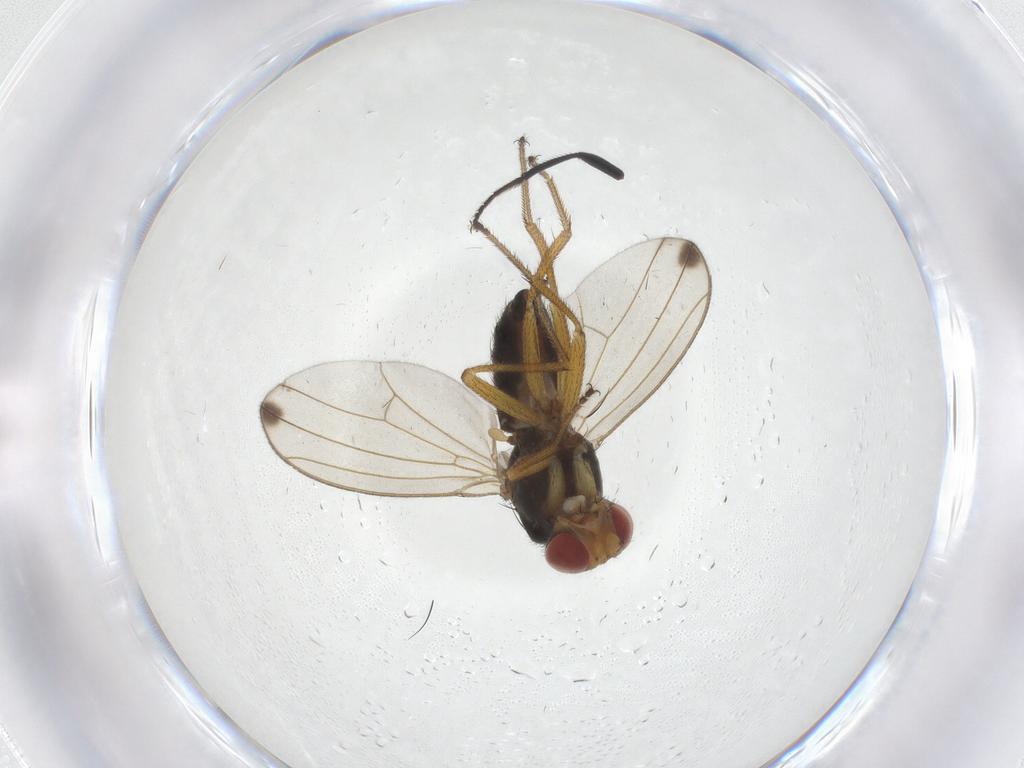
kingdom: Animalia
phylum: Arthropoda
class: Insecta
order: Diptera
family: Drosophilidae
